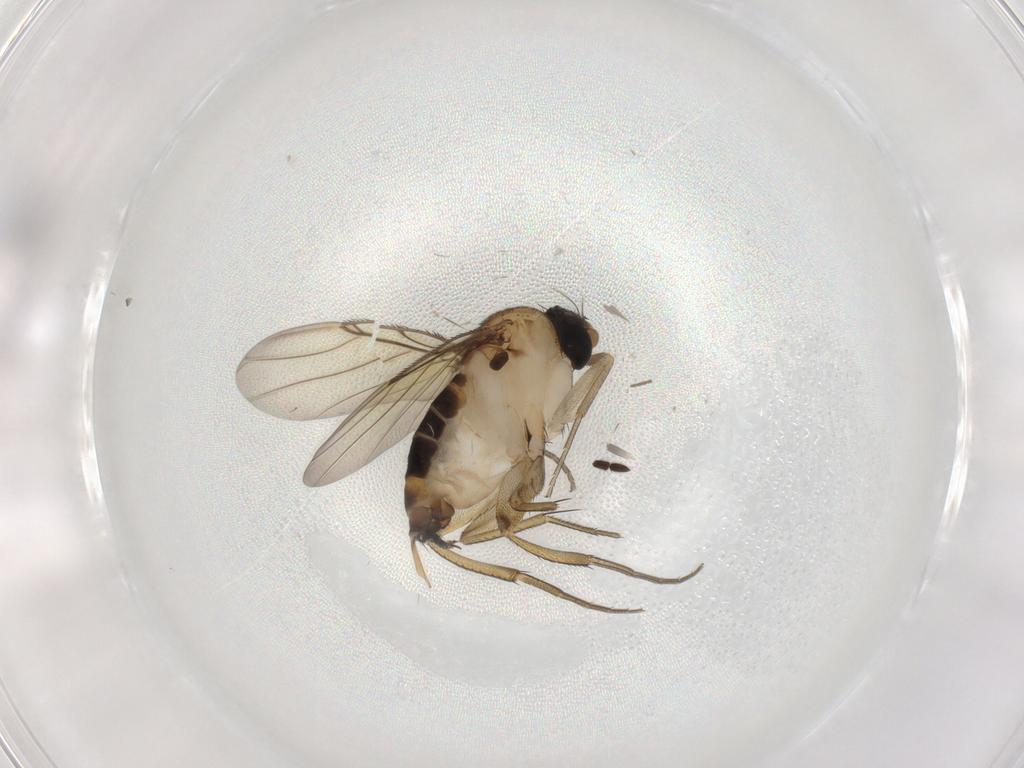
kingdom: Animalia
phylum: Arthropoda
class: Insecta
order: Diptera
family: Phoridae
